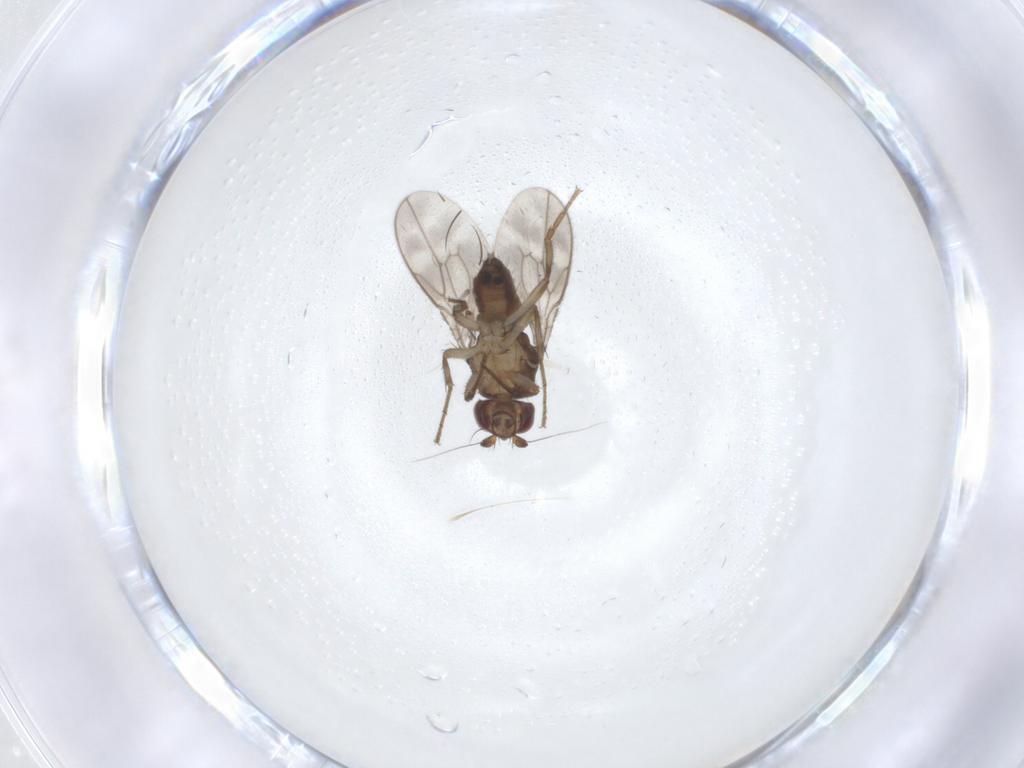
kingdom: Animalia
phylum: Arthropoda
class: Insecta
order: Diptera
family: Sphaeroceridae
